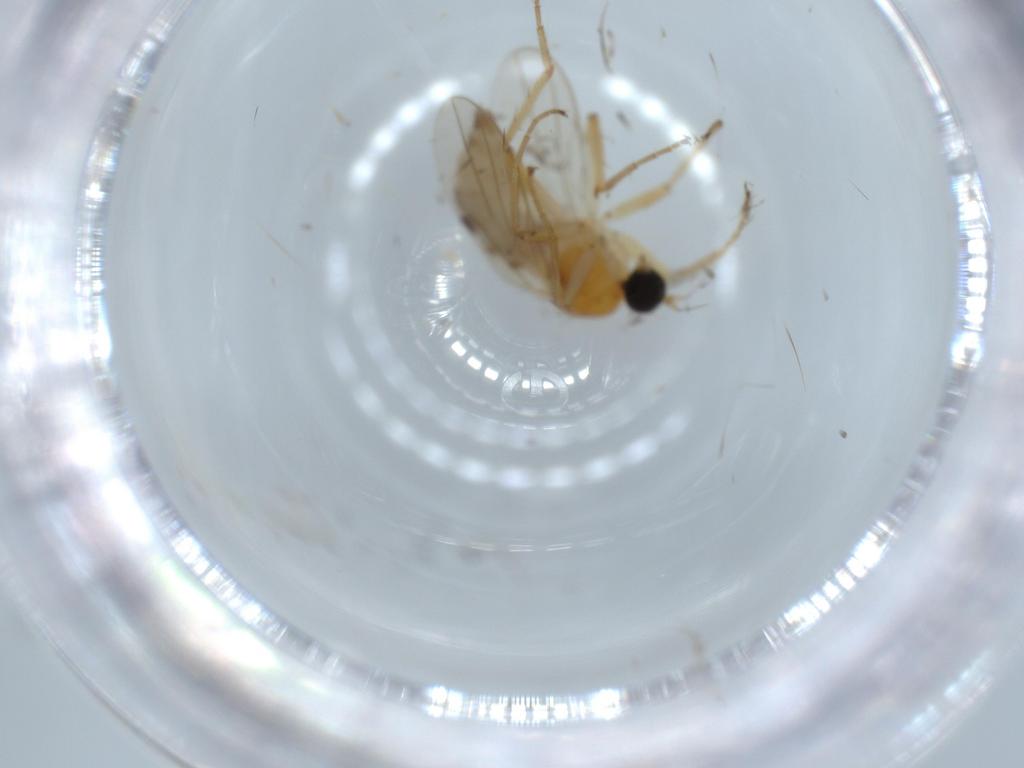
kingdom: Animalia
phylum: Arthropoda
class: Insecta
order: Diptera
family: Hybotidae
